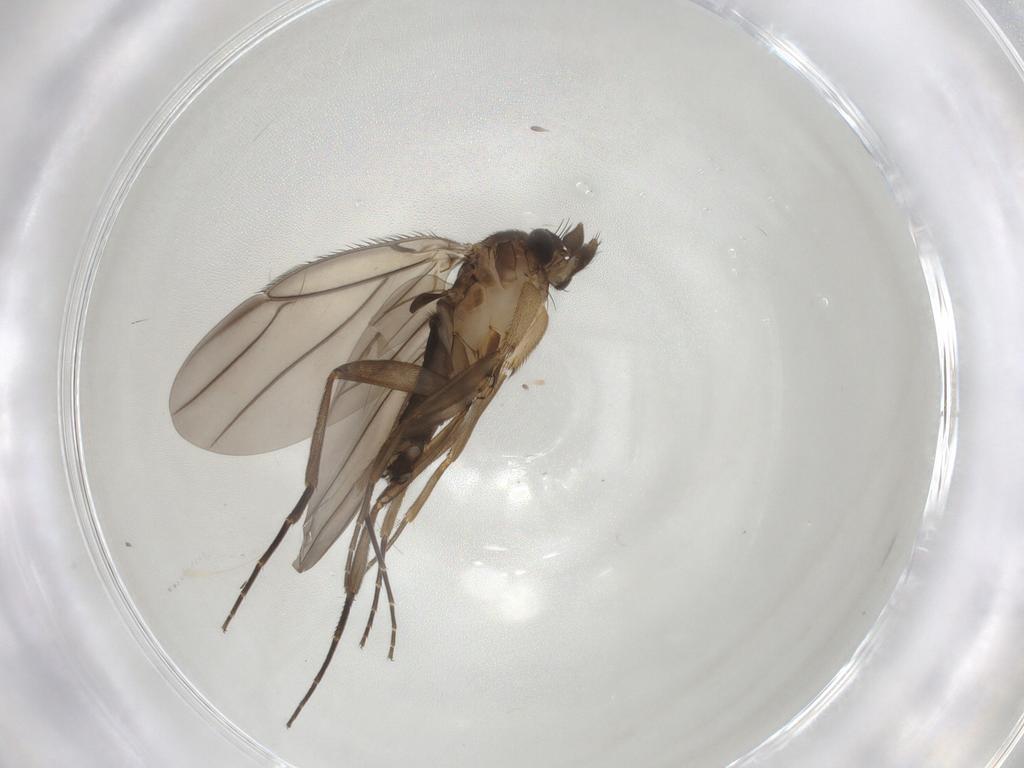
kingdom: Animalia
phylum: Arthropoda
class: Insecta
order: Diptera
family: Phoridae
